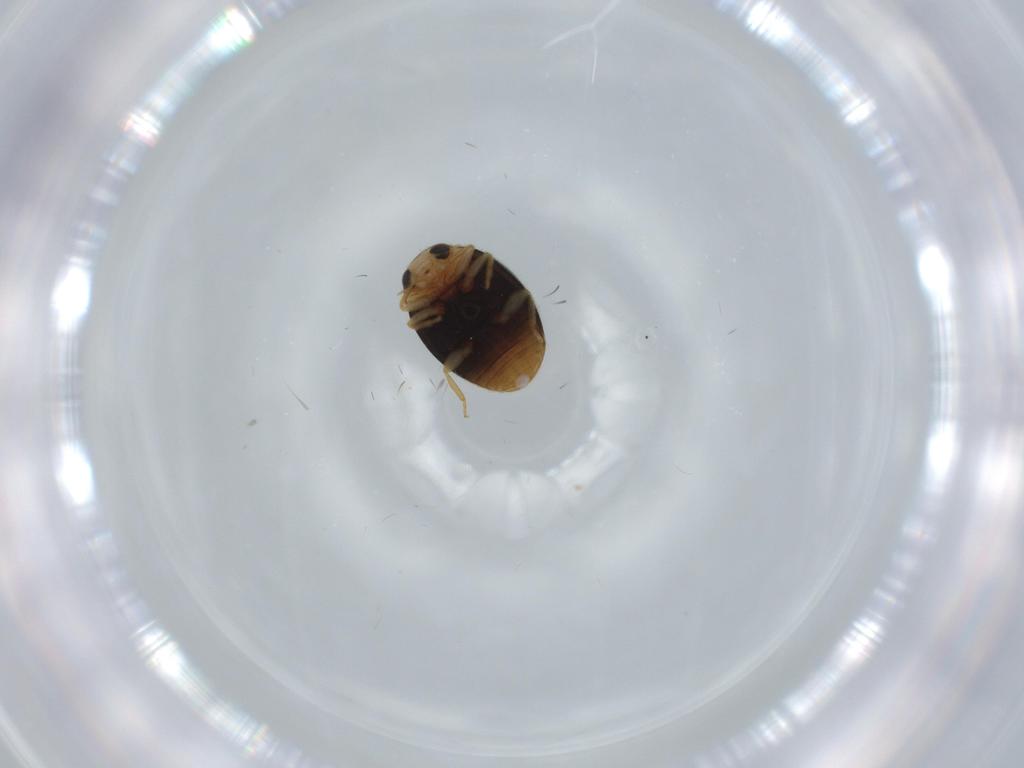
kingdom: Animalia
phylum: Arthropoda
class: Insecta
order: Coleoptera
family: Coccinellidae
